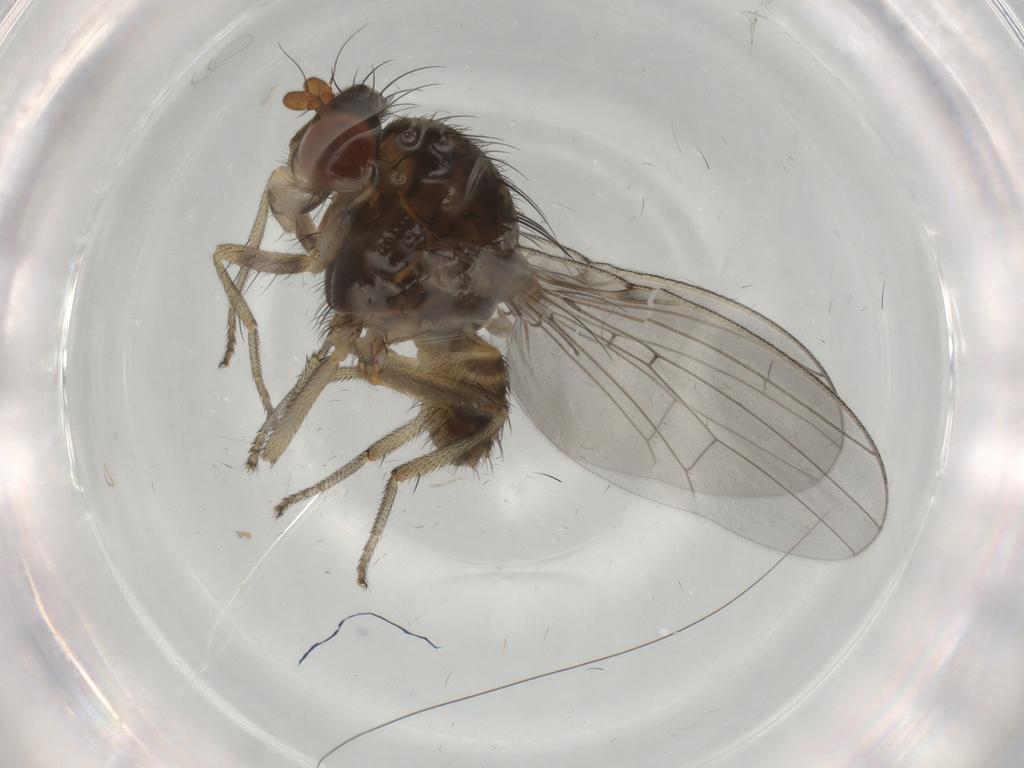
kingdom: Animalia
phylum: Arthropoda
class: Insecta
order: Diptera
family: Lauxaniidae
